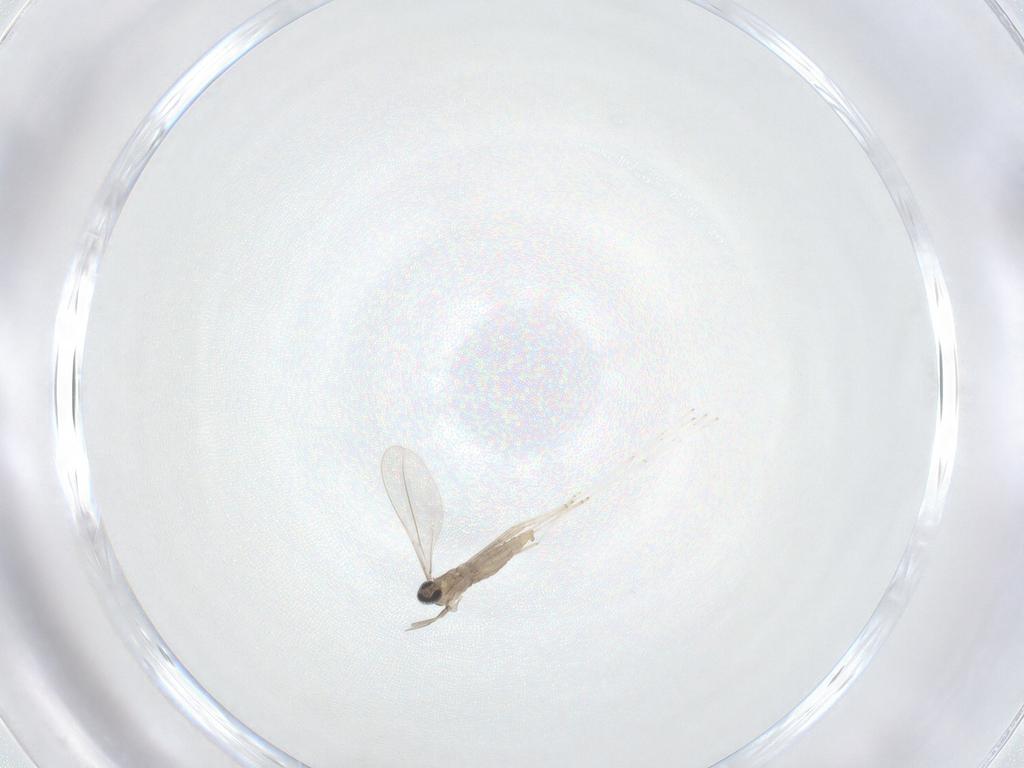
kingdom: Animalia
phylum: Arthropoda
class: Insecta
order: Diptera
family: Cecidomyiidae
